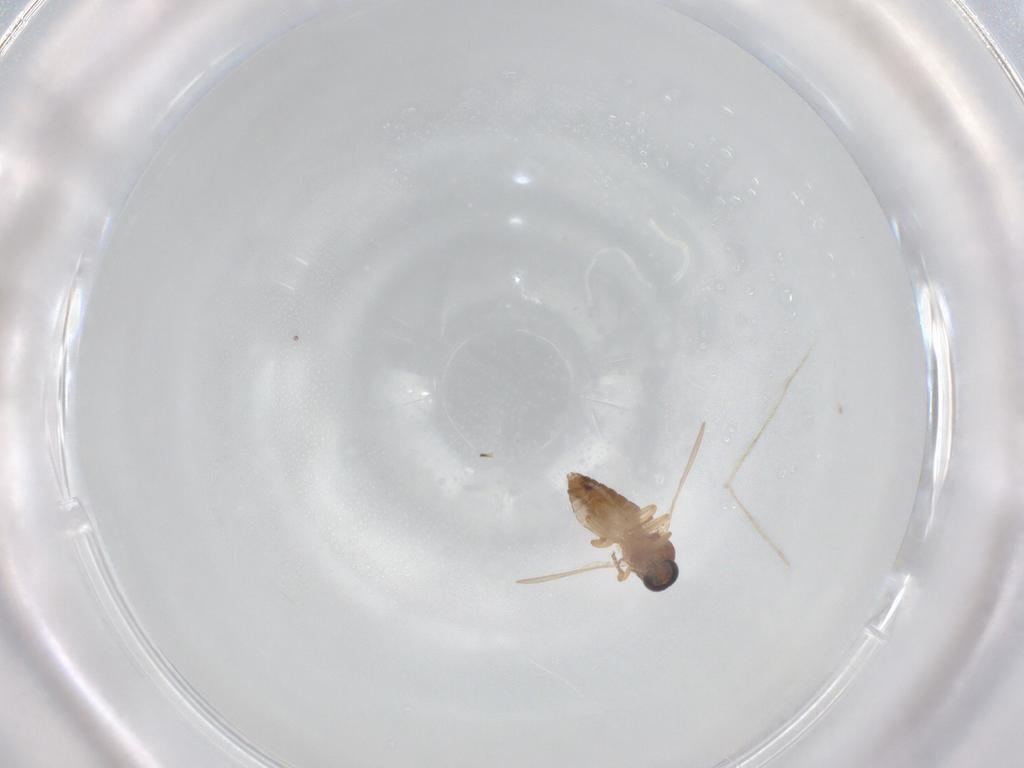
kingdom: Animalia
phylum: Arthropoda
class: Insecta
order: Diptera
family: Ceratopogonidae
